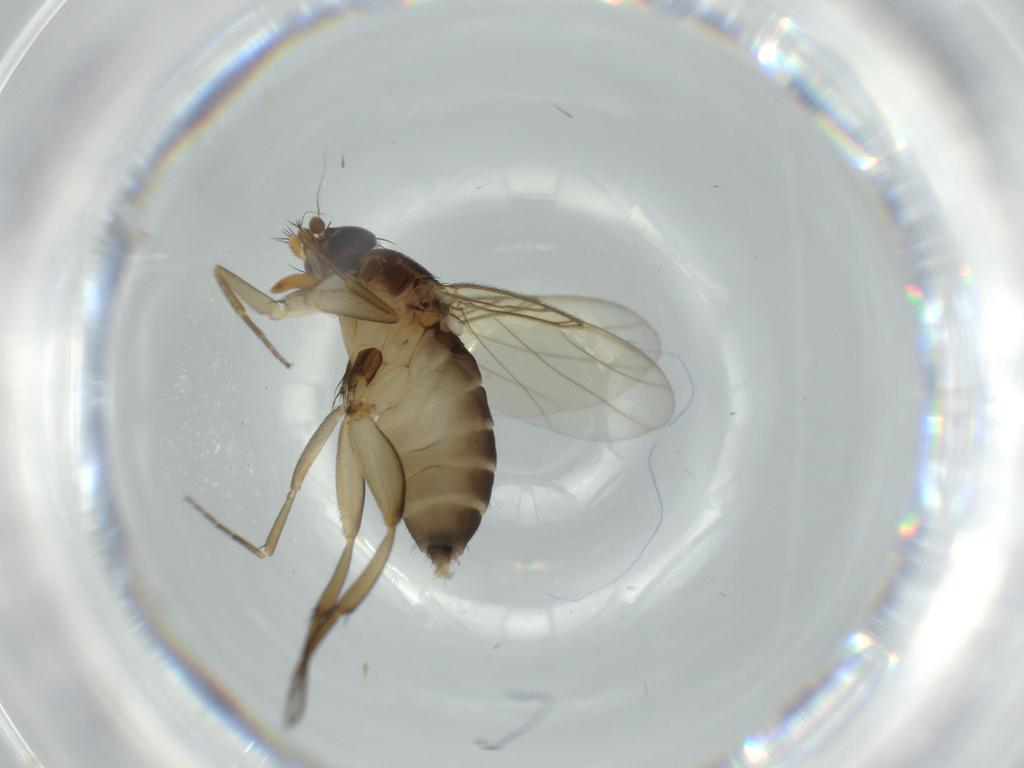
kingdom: Animalia
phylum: Arthropoda
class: Insecta
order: Diptera
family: Phoridae
